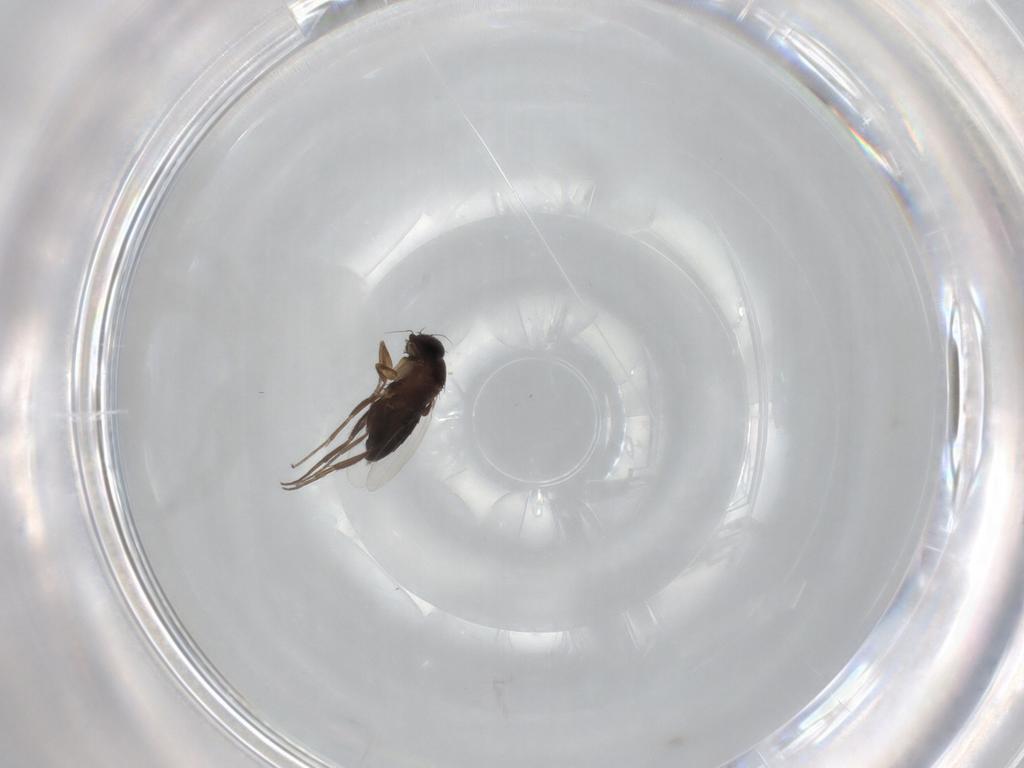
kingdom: Animalia
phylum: Arthropoda
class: Insecta
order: Diptera
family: Phoridae
